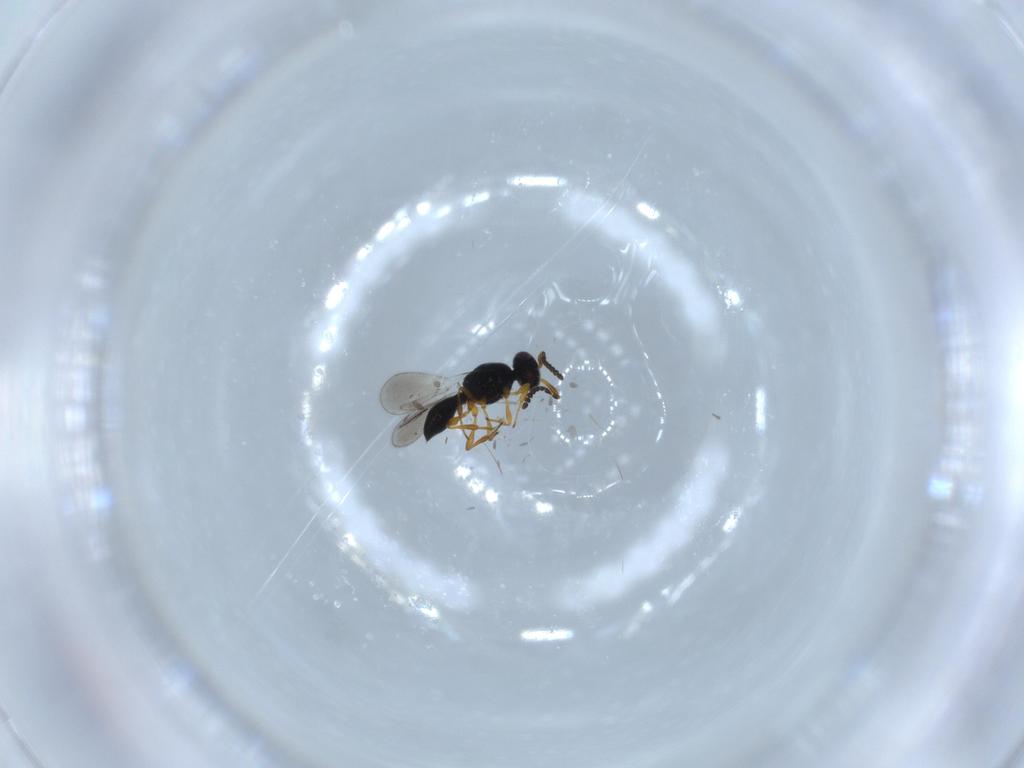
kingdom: Animalia
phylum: Arthropoda
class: Insecta
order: Hymenoptera
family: Platygastridae
